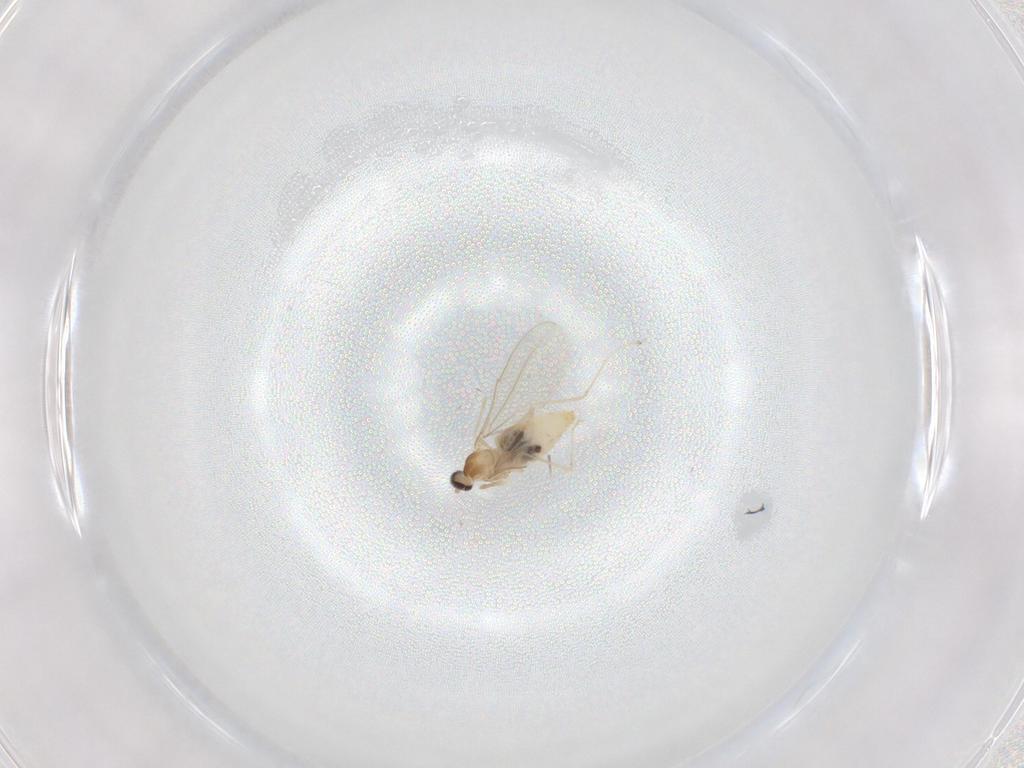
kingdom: Animalia
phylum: Arthropoda
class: Insecta
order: Diptera
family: Cecidomyiidae
